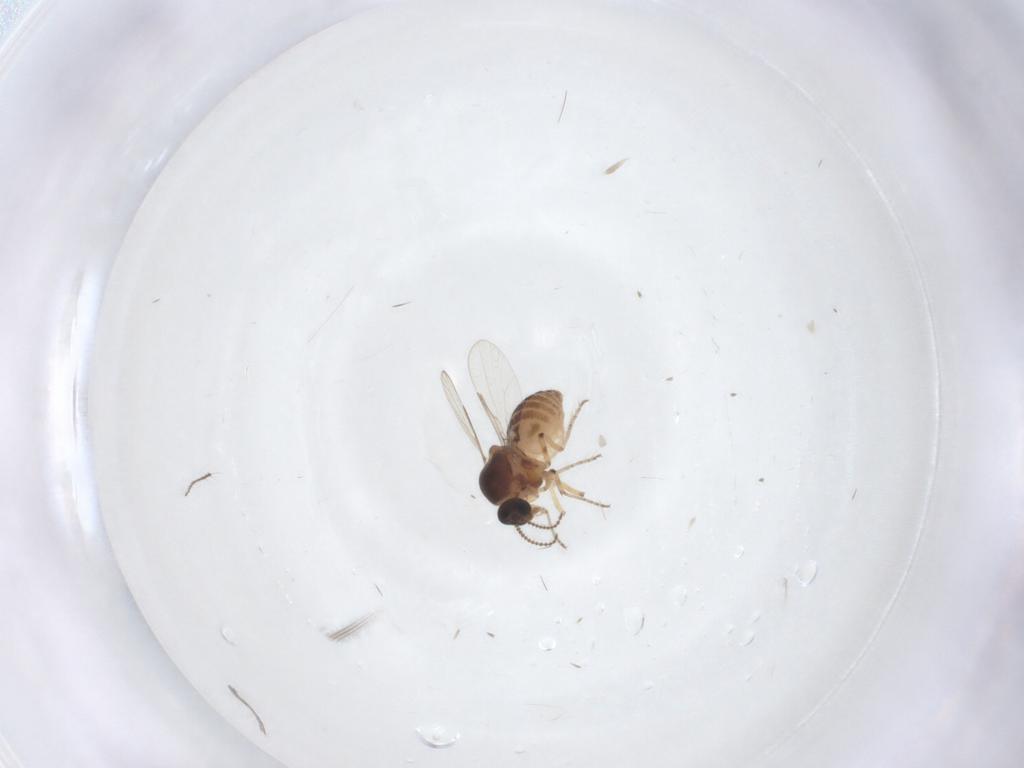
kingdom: Animalia
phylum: Arthropoda
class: Insecta
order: Diptera
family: Ceratopogonidae
